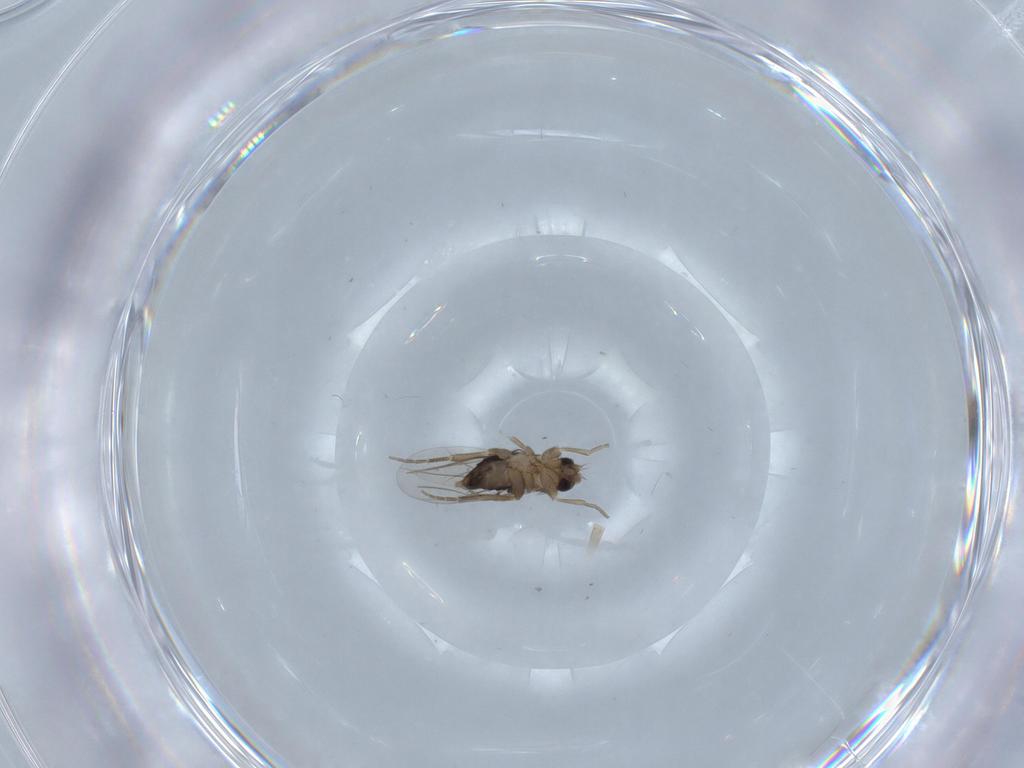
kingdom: Animalia
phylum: Arthropoda
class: Insecta
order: Diptera
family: Phoridae
